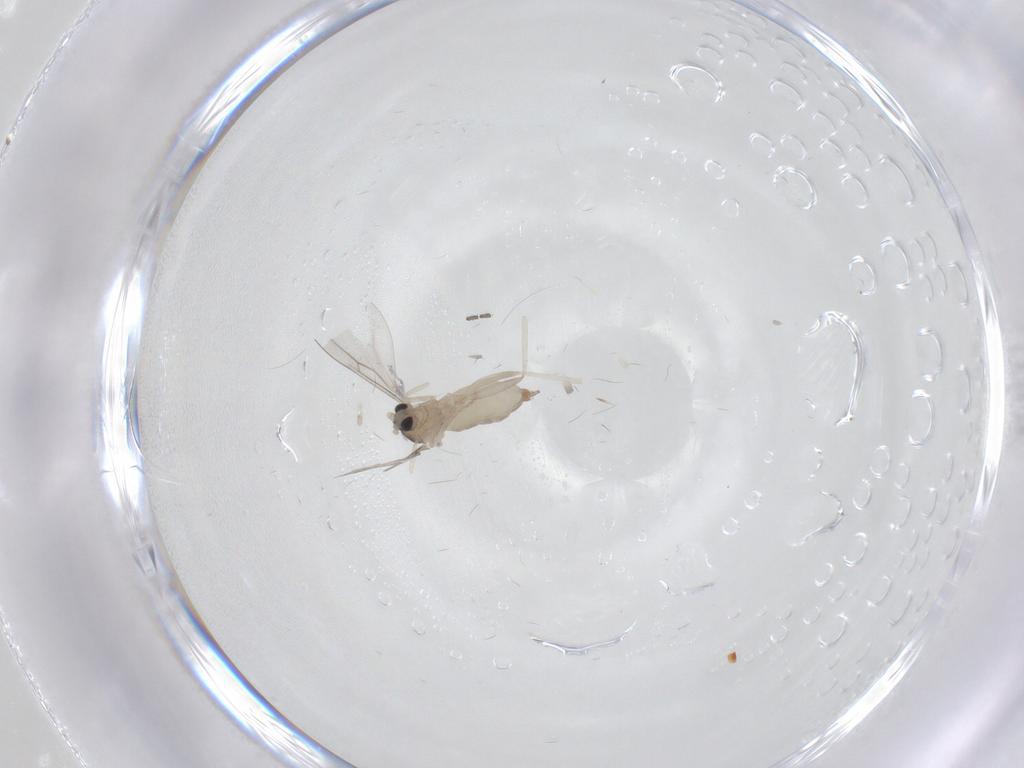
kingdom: Animalia
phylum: Arthropoda
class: Insecta
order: Diptera
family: Cecidomyiidae
